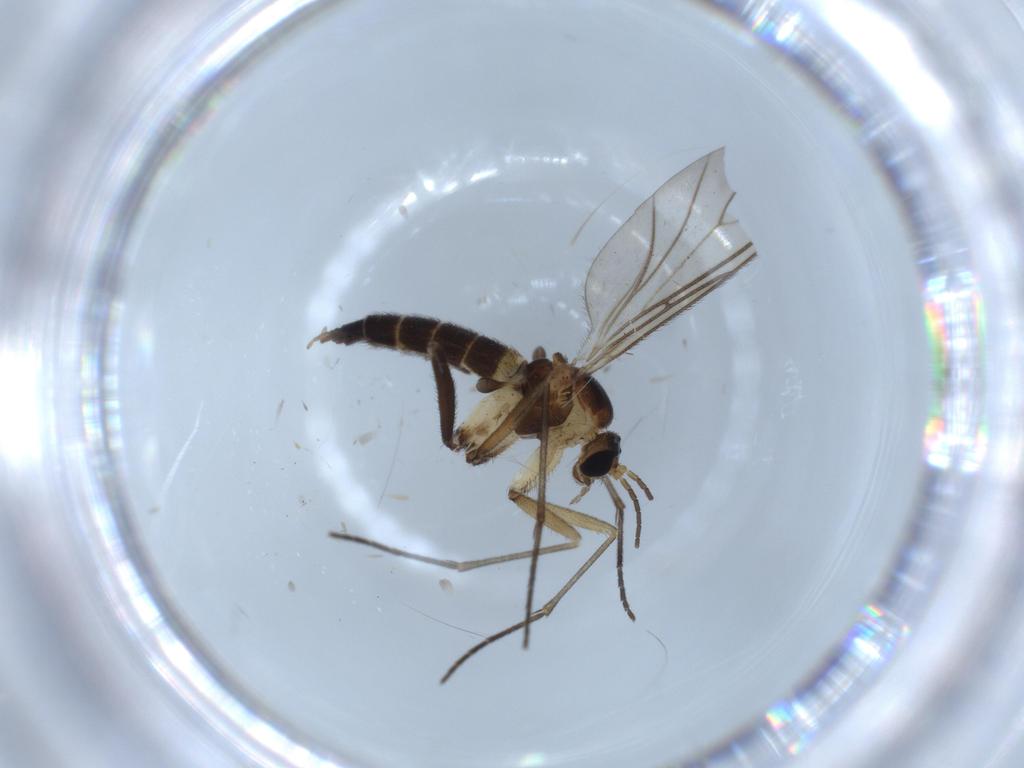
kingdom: Animalia
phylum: Arthropoda
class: Insecta
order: Diptera
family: Sciaridae
